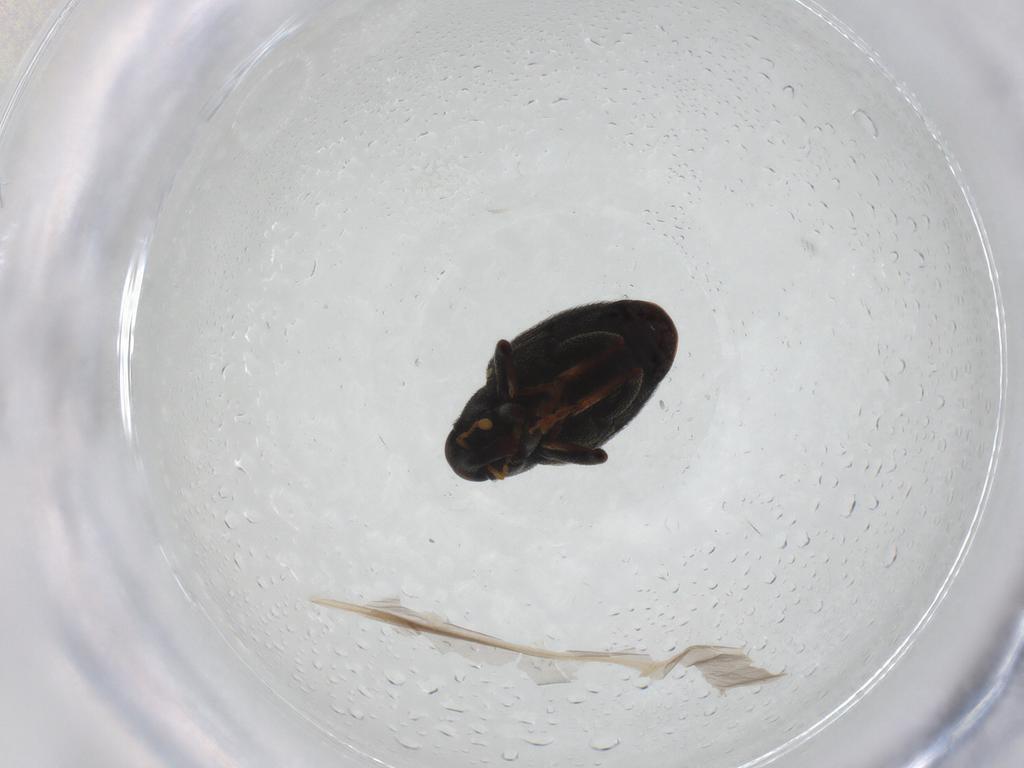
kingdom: Animalia
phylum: Arthropoda
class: Insecta
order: Coleoptera
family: Ptilodactylidae
